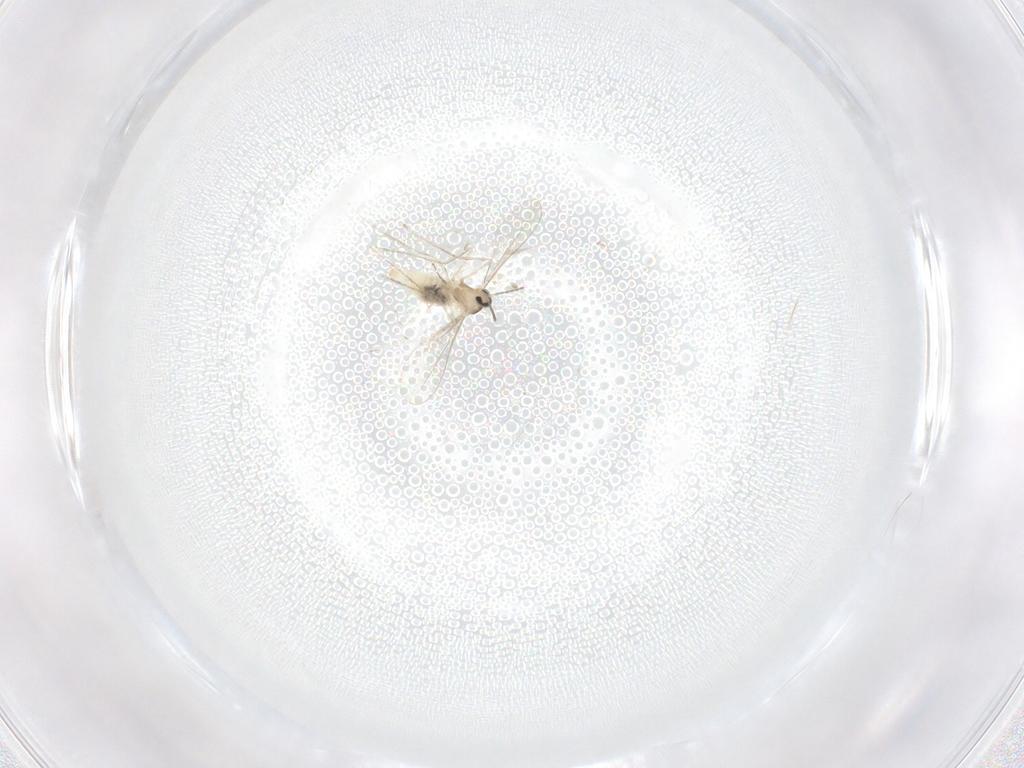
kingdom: Animalia
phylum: Arthropoda
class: Insecta
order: Diptera
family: Cecidomyiidae
